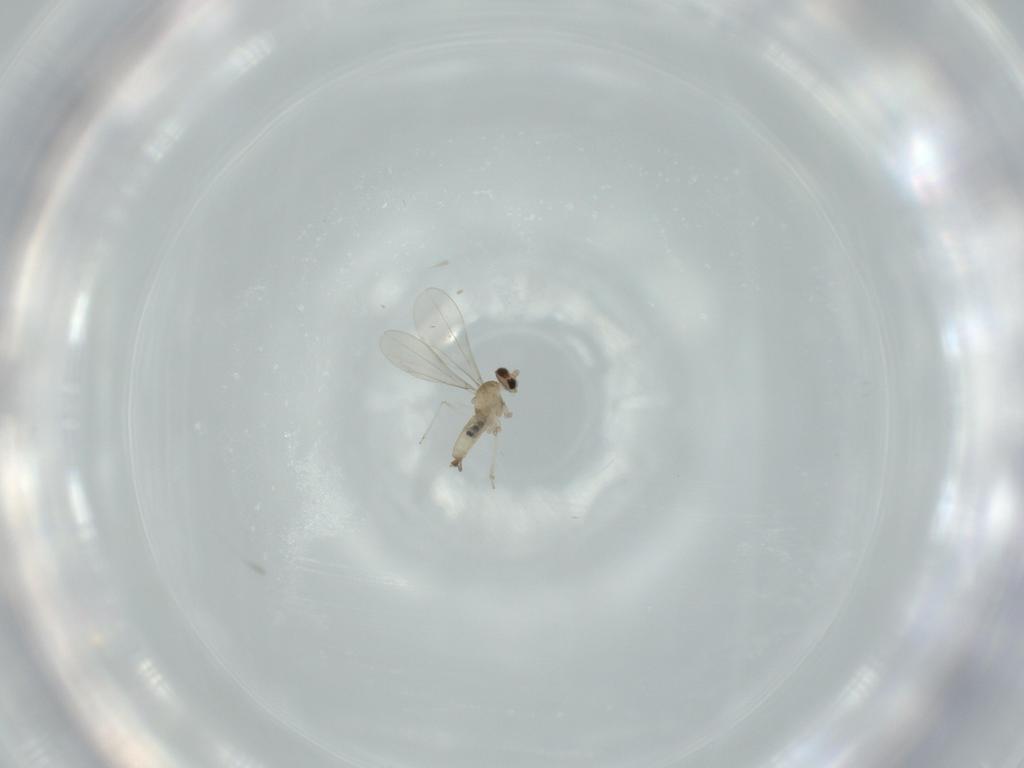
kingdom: Animalia
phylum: Arthropoda
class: Insecta
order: Diptera
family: Cecidomyiidae
